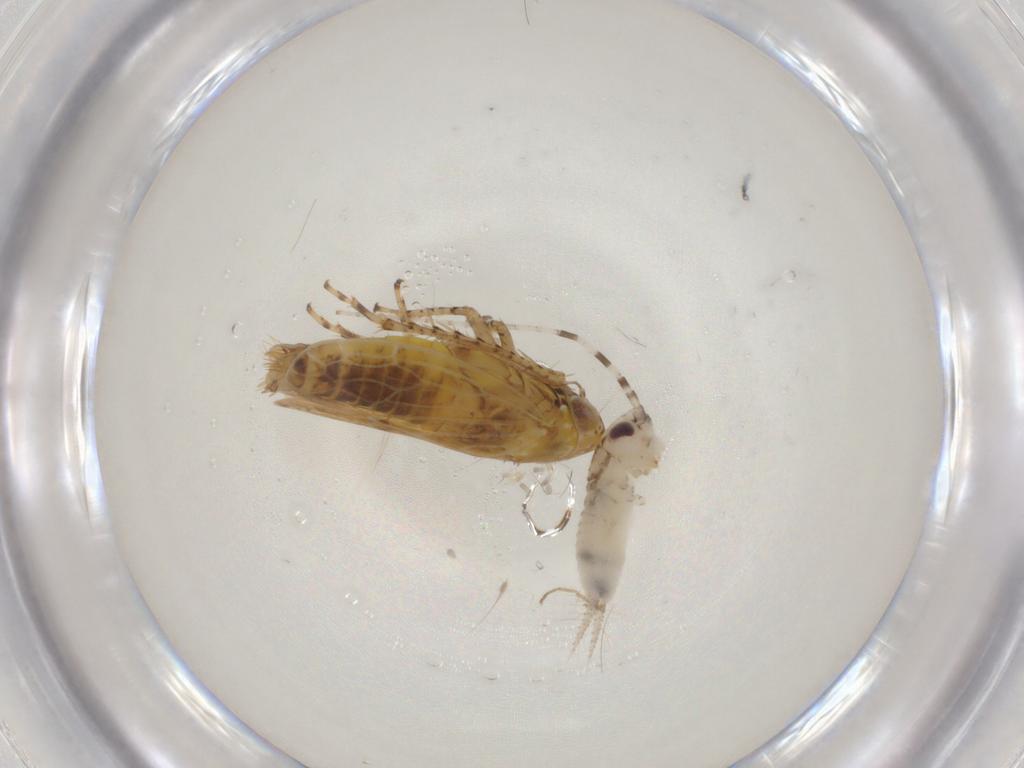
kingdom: Animalia
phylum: Arthropoda
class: Insecta
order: Orthoptera
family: Trigonidiidae
